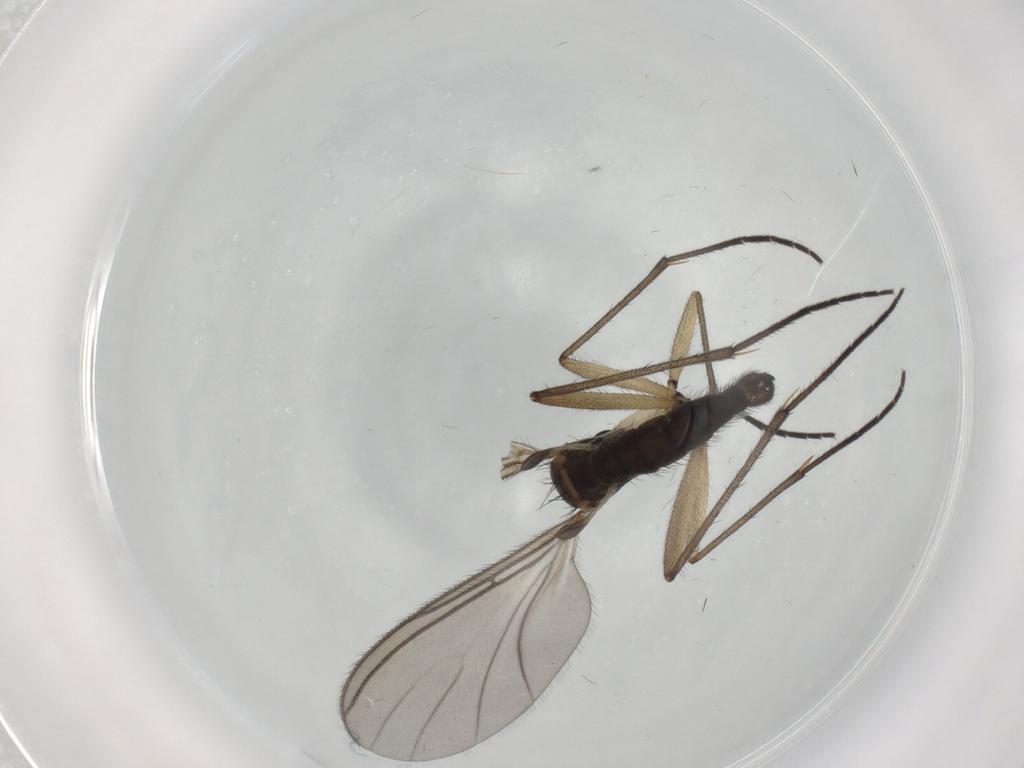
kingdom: Animalia
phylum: Arthropoda
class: Insecta
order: Diptera
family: Sciaridae
